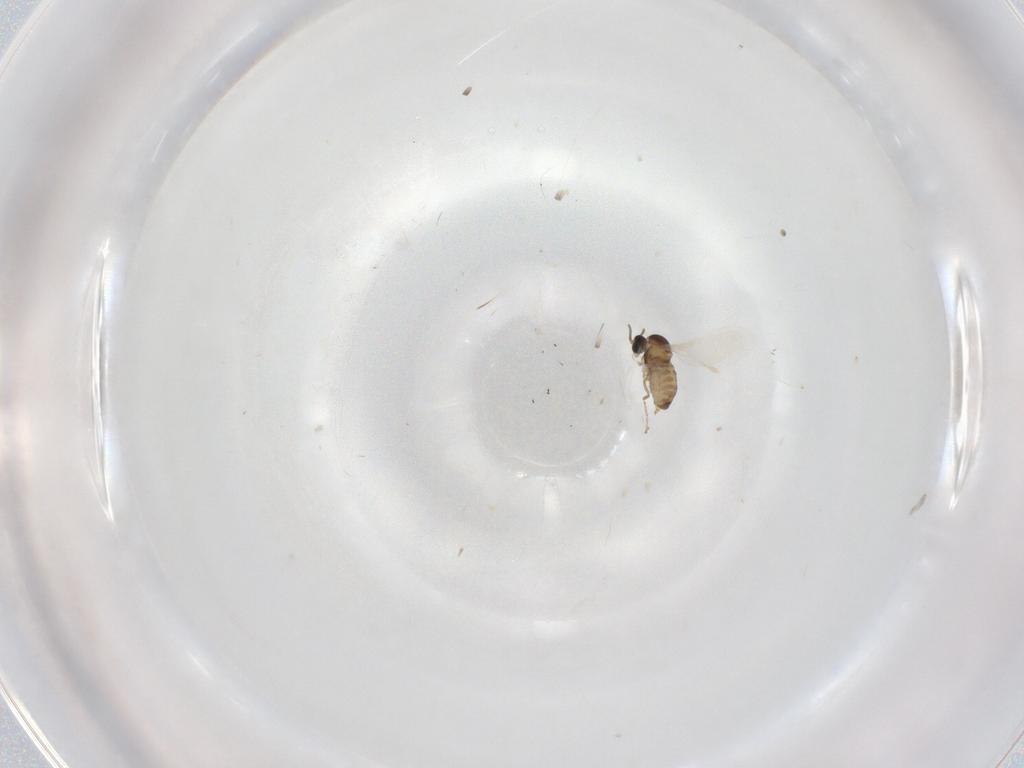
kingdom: Animalia
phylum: Arthropoda
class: Insecta
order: Diptera
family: Cecidomyiidae
